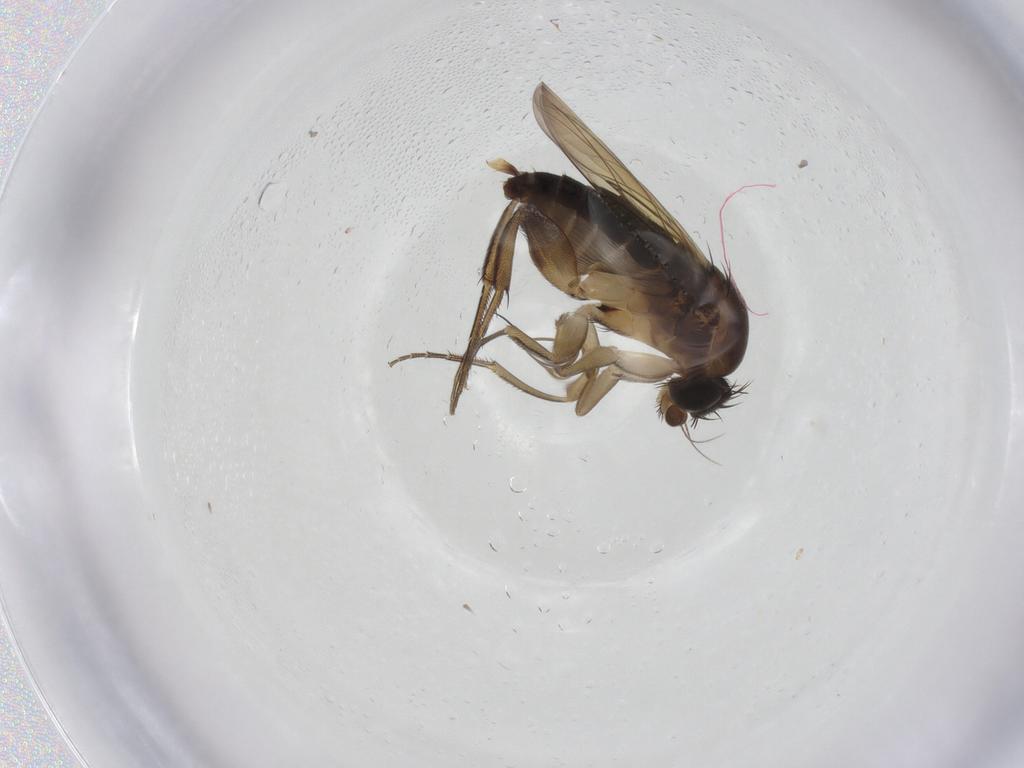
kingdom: Animalia
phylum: Arthropoda
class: Insecta
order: Diptera
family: Phoridae
